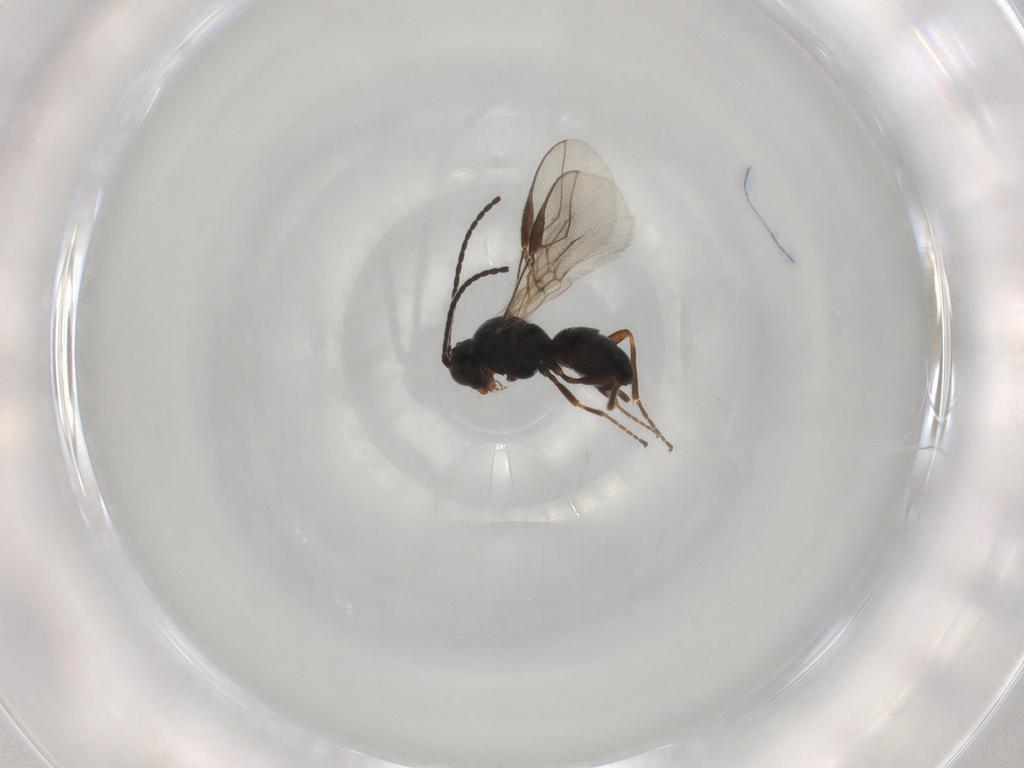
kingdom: Animalia
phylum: Arthropoda
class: Insecta
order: Hymenoptera
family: Braconidae
